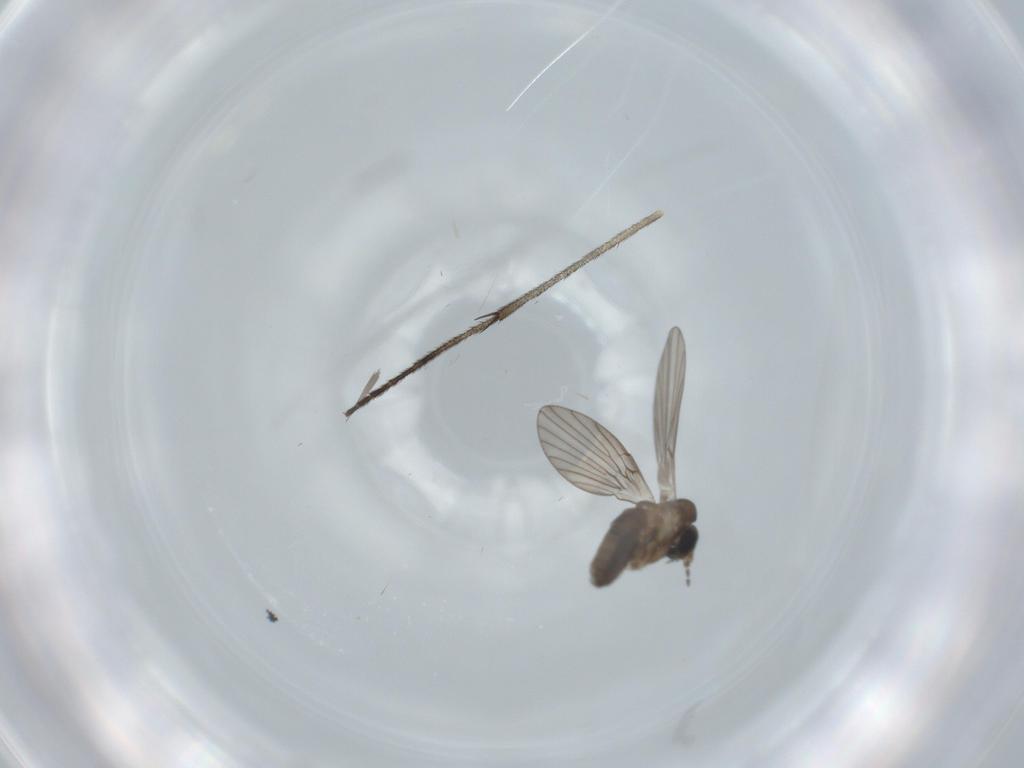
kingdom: Animalia
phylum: Arthropoda
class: Insecta
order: Diptera
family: Sciaridae
